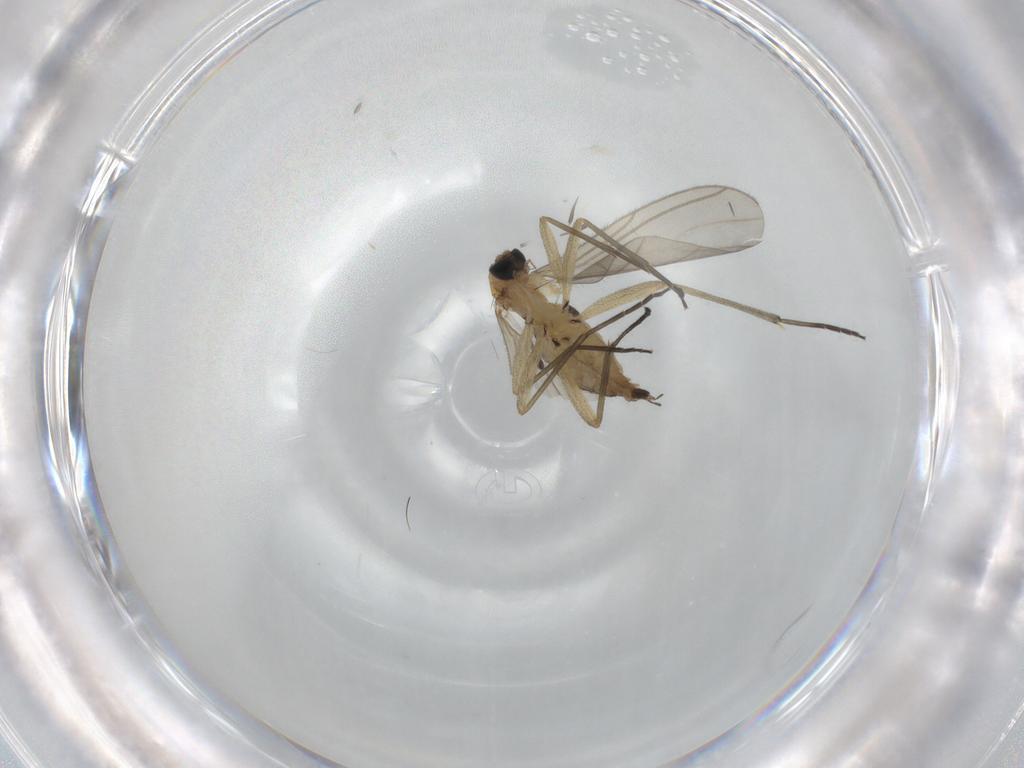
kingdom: Animalia
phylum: Arthropoda
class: Insecta
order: Diptera
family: Sciaridae
